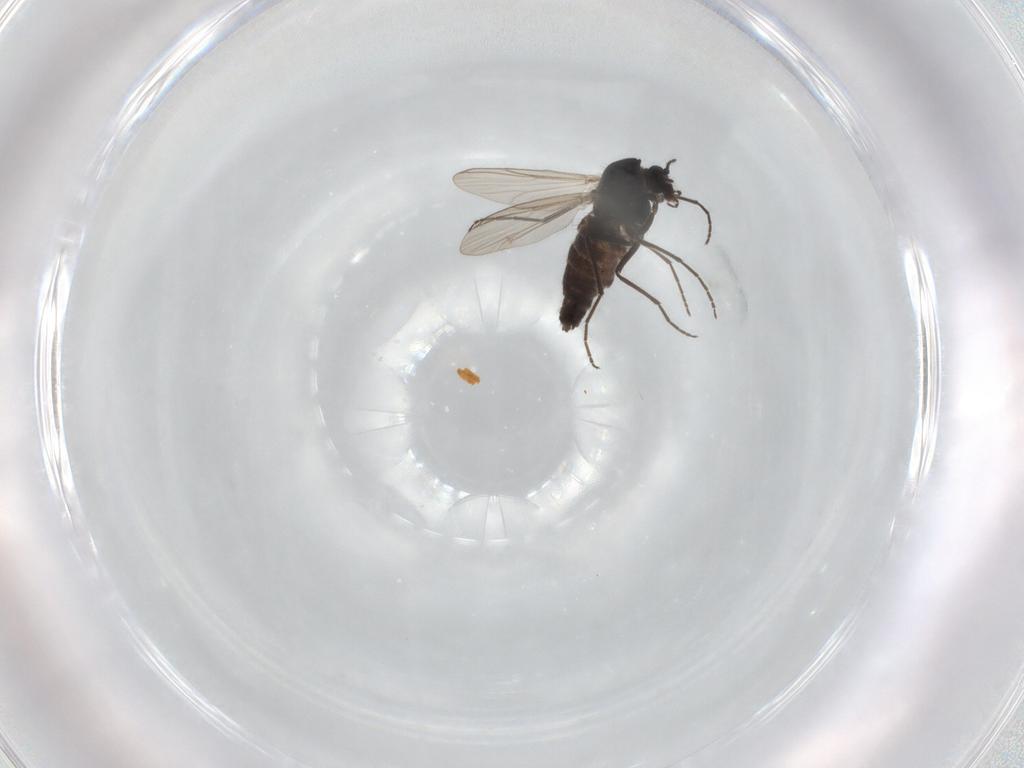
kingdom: Animalia
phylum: Arthropoda
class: Insecta
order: Diptera
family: Chironomidae
